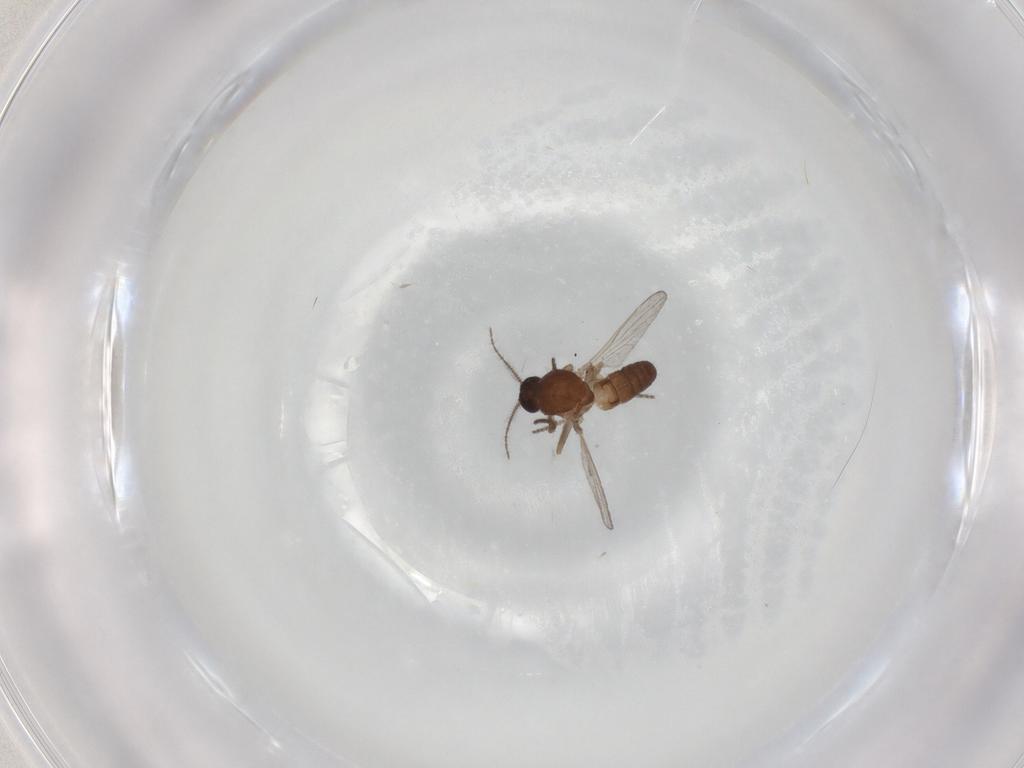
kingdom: Animalia
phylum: Arthropoda
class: Insecta
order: Diptera
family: Ceratopogonidae
